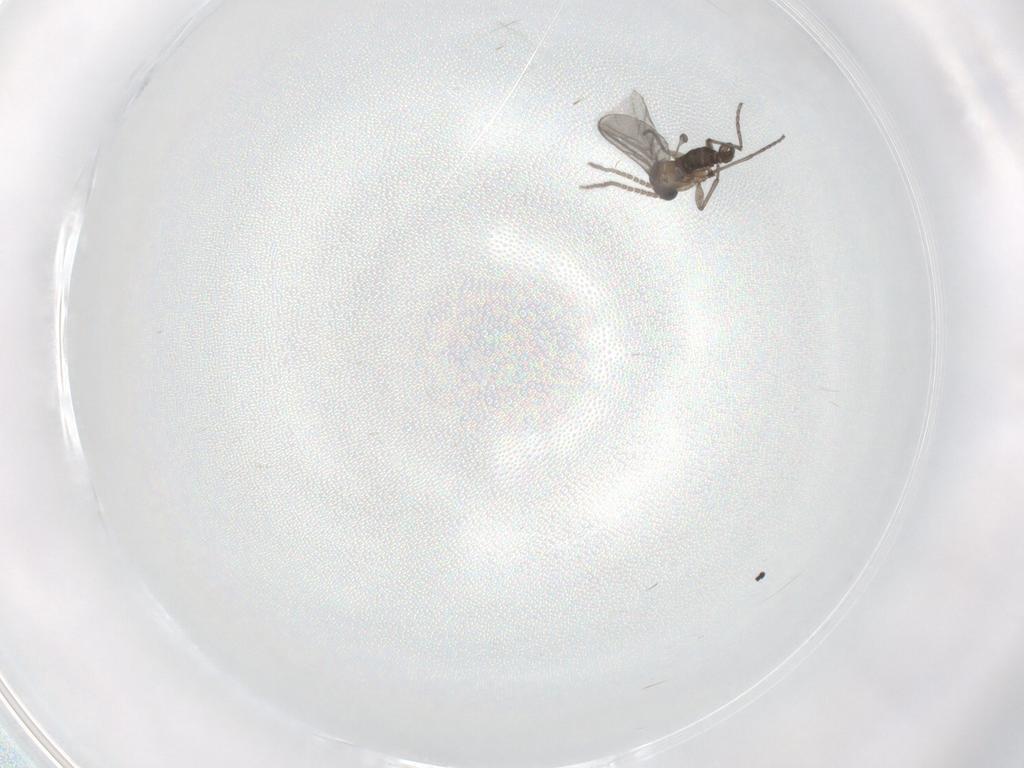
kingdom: Animalia
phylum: Arthropoda
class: Insecta
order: Diptera
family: Sciaridae
